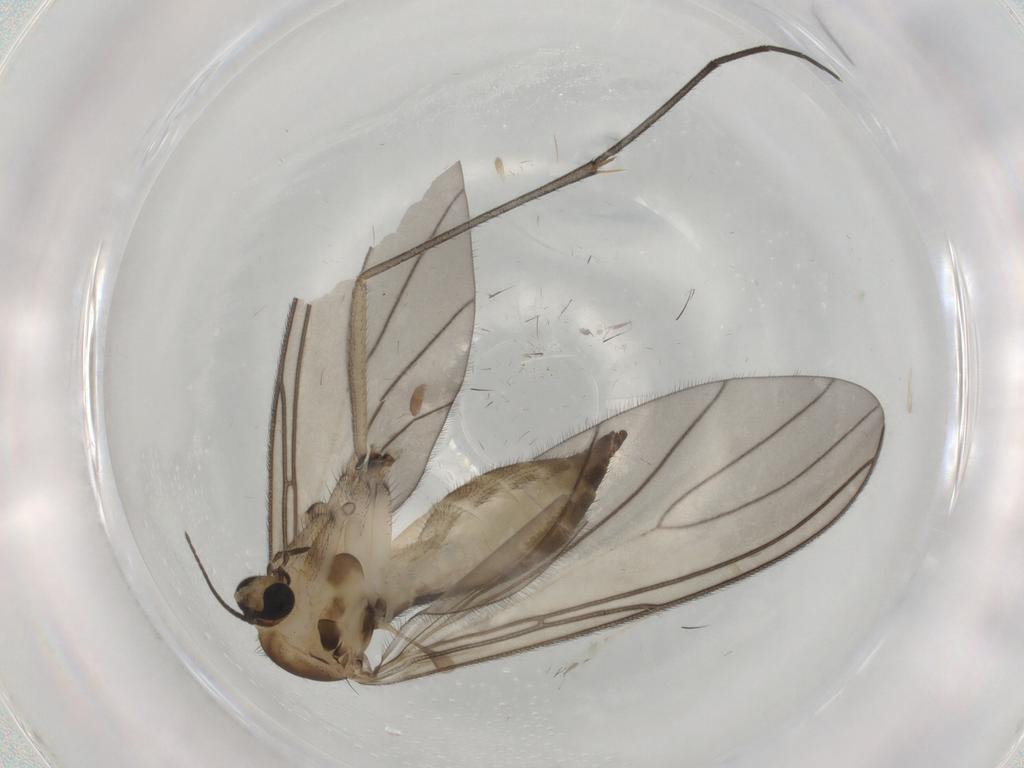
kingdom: Animalia
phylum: Arthropoda
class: Insecta
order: Diptera
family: Sciaridae
